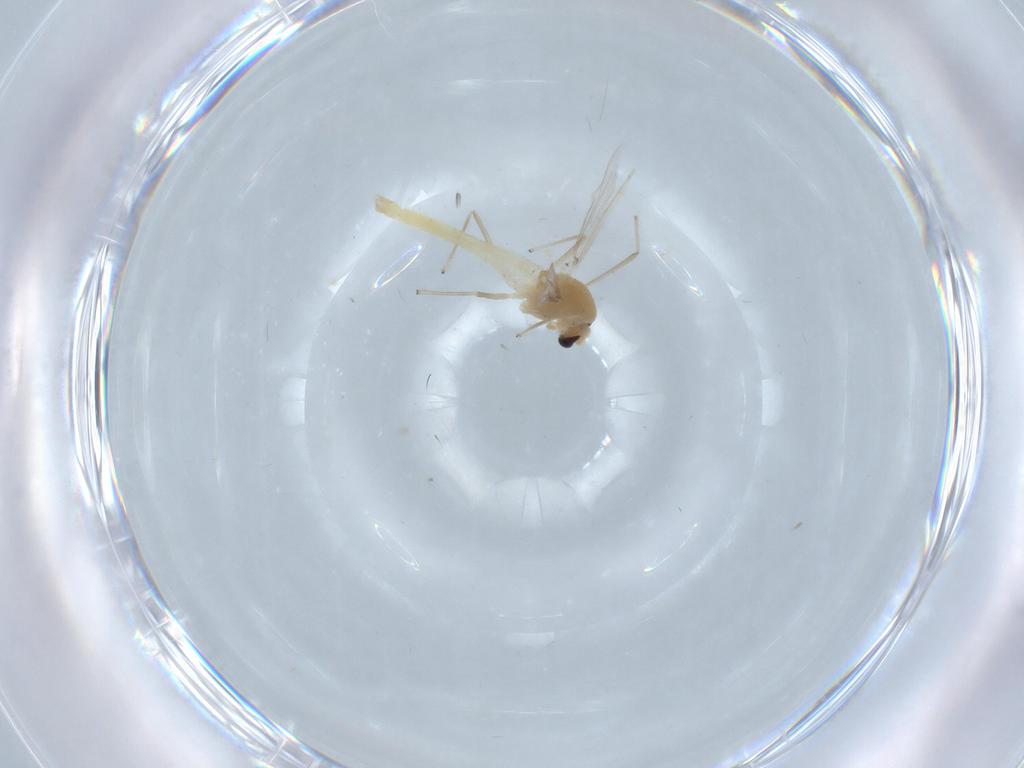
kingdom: Animalia
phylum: Arthropoda
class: Insecta
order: Diptera
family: Chironomidae
